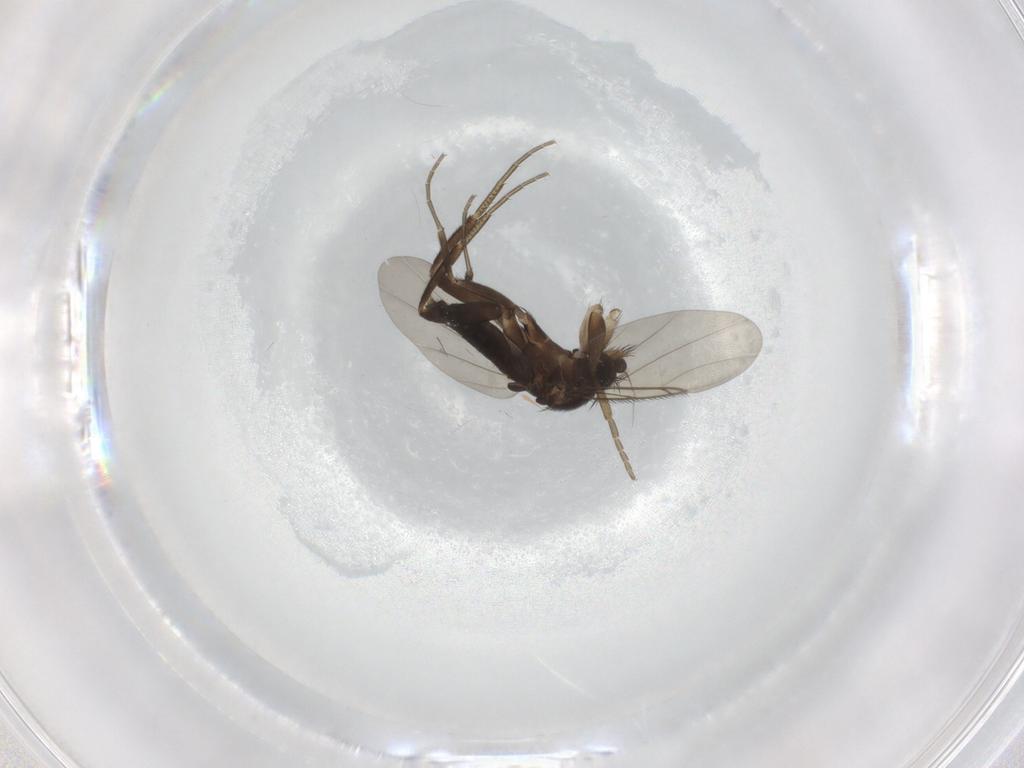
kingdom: Animalia
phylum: Arthropoda
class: Insecta
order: Diptera
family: Phoridae
